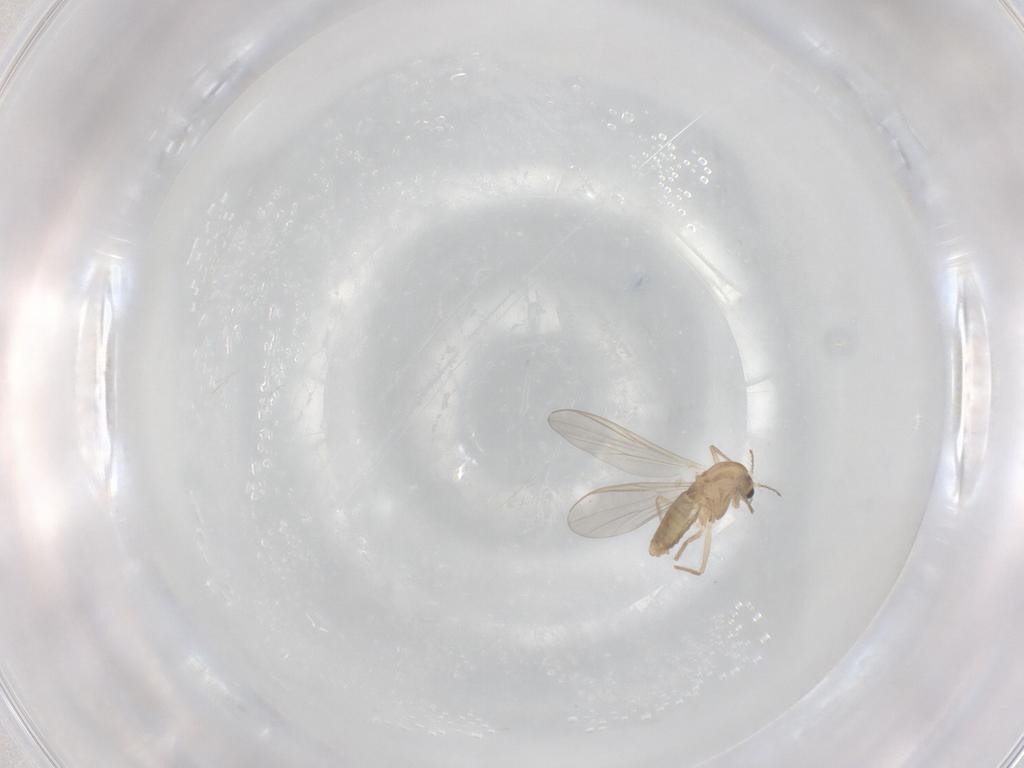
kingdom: Animalia
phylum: Arthropoda
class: Insecta
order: Diptera
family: Chironomidae
